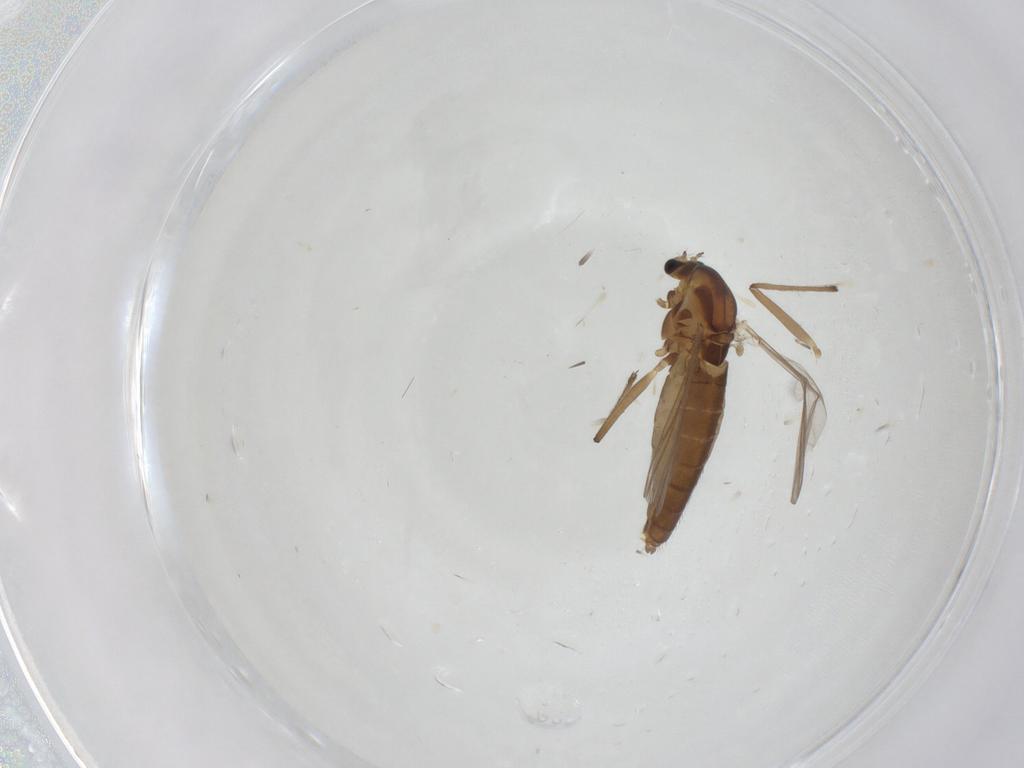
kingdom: Animalia
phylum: Arthropoda
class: Insecta
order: Diptera
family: Chironomidae
